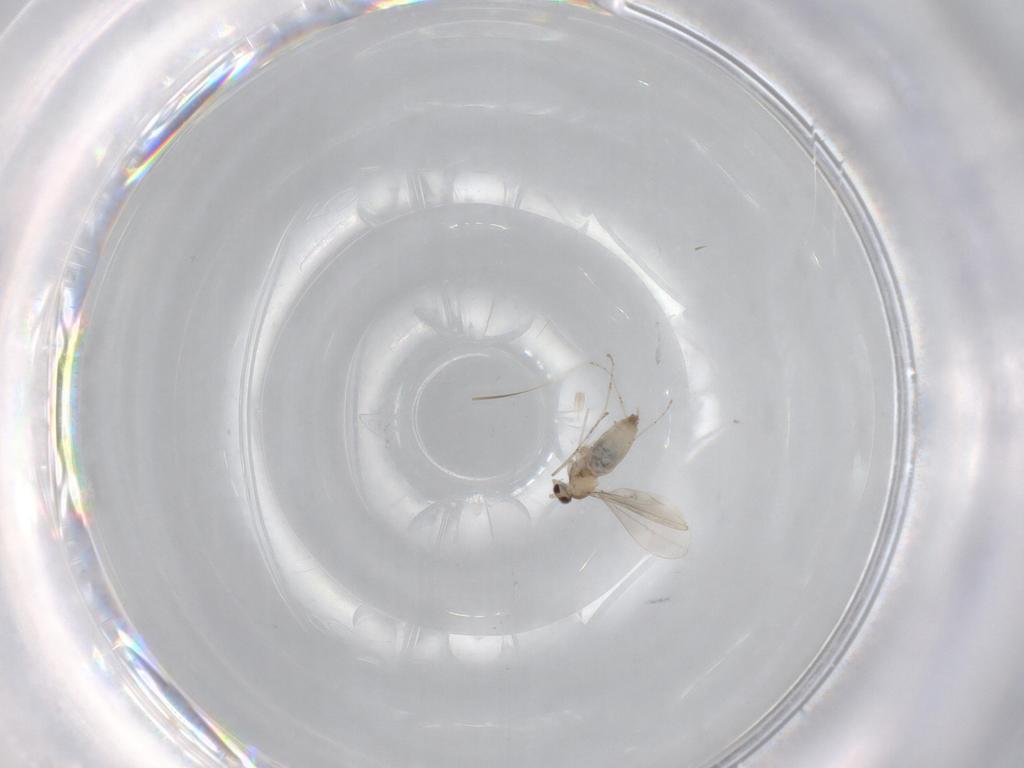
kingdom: Animalia
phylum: Arthropoda
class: Insecta
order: Diptera
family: Cecidomyiidae
